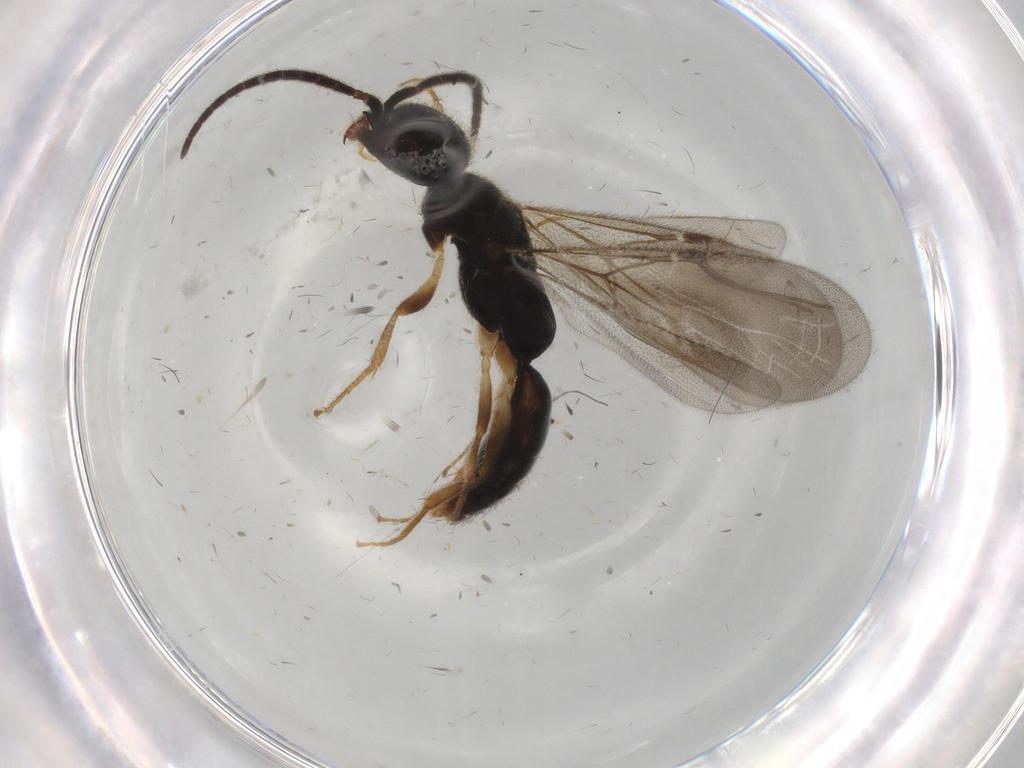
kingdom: Animalia
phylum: Arthropoda
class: Insecta
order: Hymenoptera
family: Bethylidae
